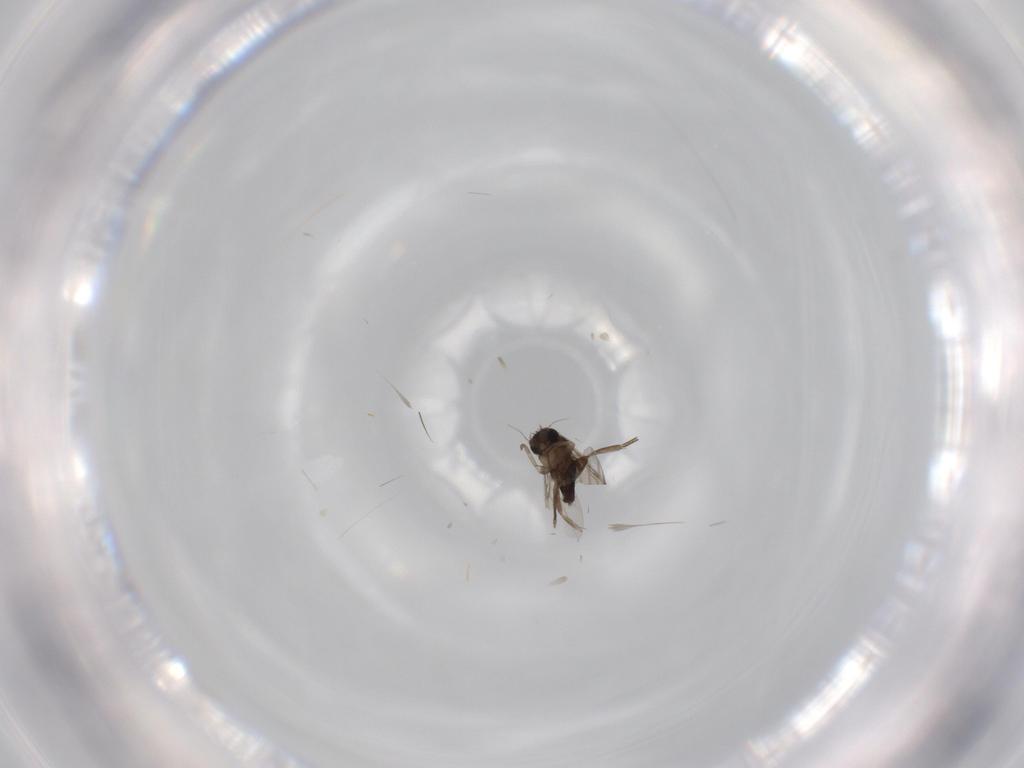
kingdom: Animalia
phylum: Arthropoda
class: Insecta
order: Diptera
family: Phoridae
